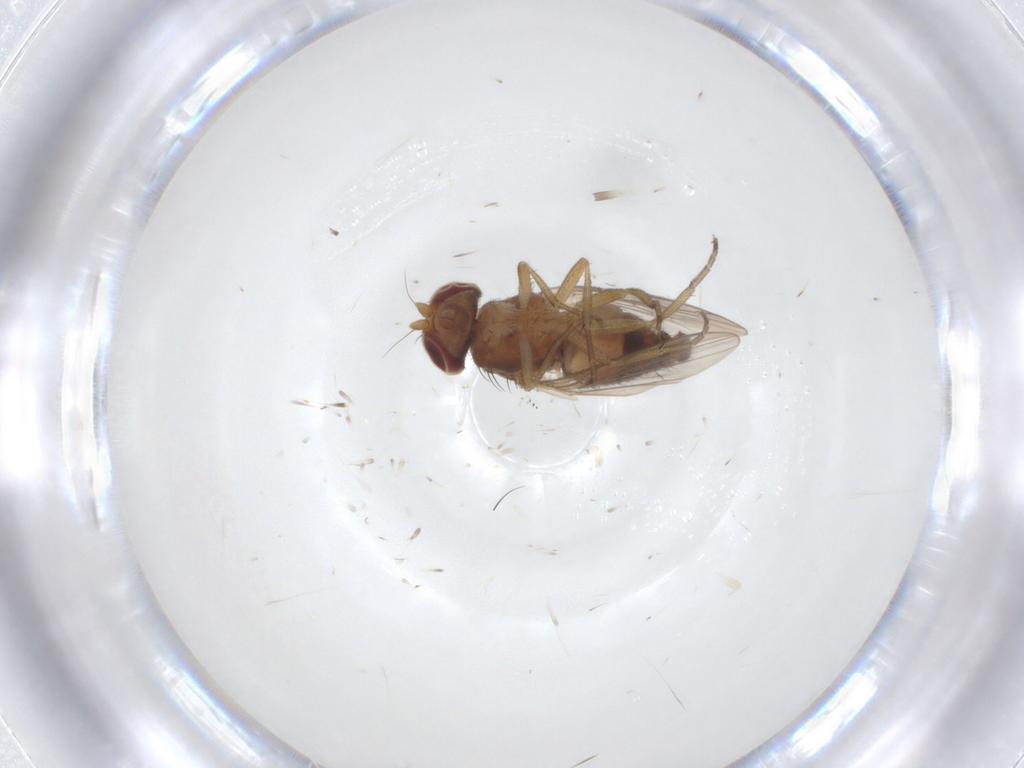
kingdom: Animalia
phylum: Arthropoda
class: Insecta
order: Diptera
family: Heleomyzidae
